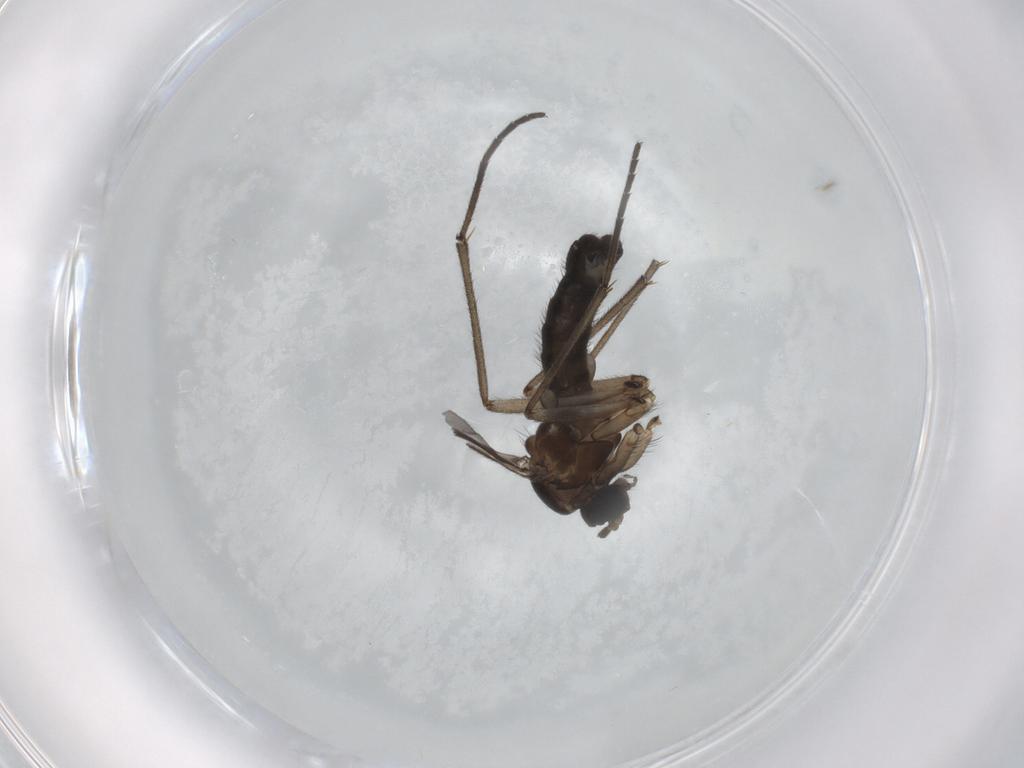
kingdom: Animalia
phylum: Arthropoda
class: Insecta
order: Diptera
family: Sciaridae
